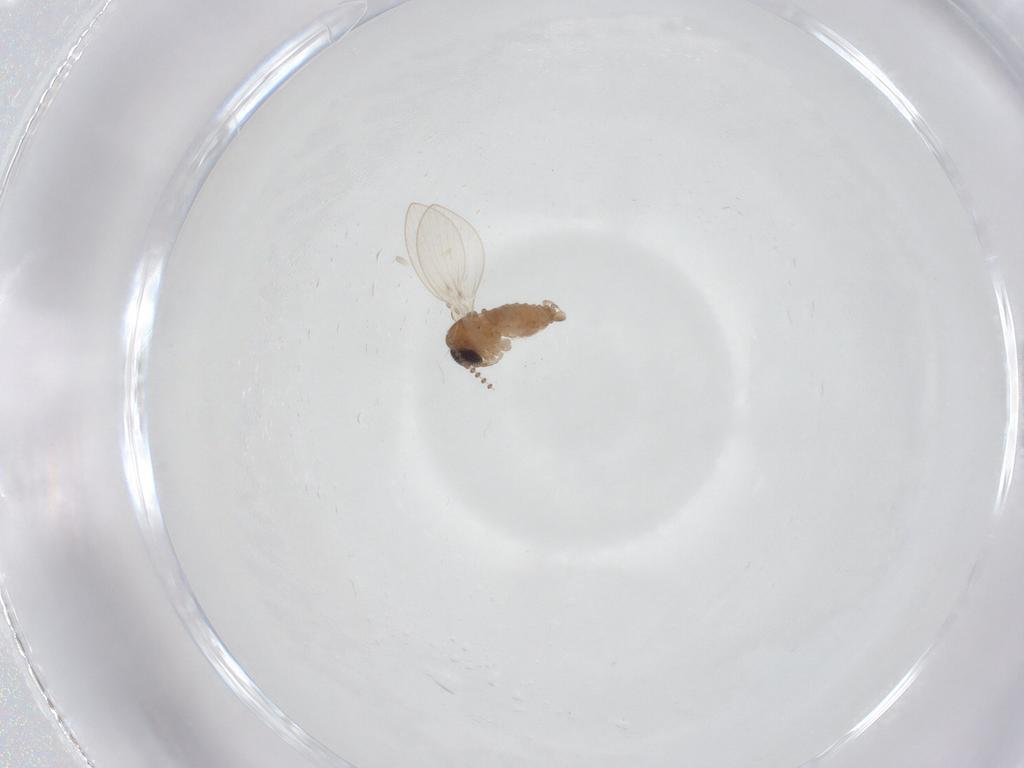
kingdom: Animalia
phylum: Arthropoda
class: Insecta
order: Diptera
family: Psychodidae
